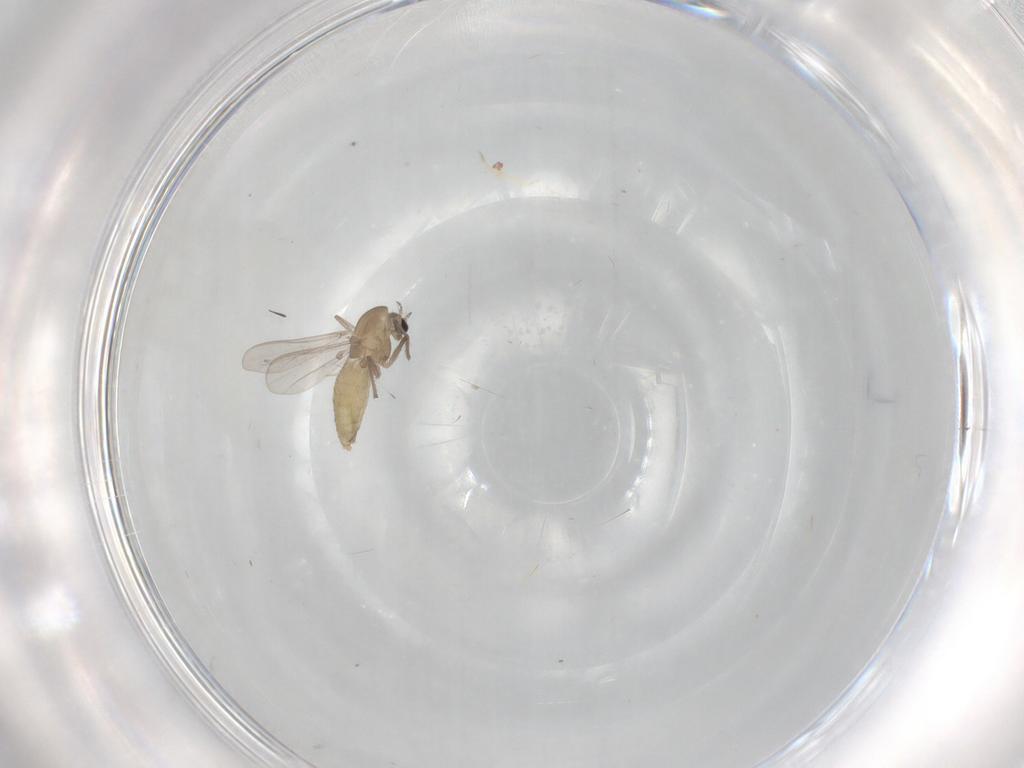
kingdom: Animalia
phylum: Arthropoda
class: Insecta
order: Diptera
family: Chironomidae
